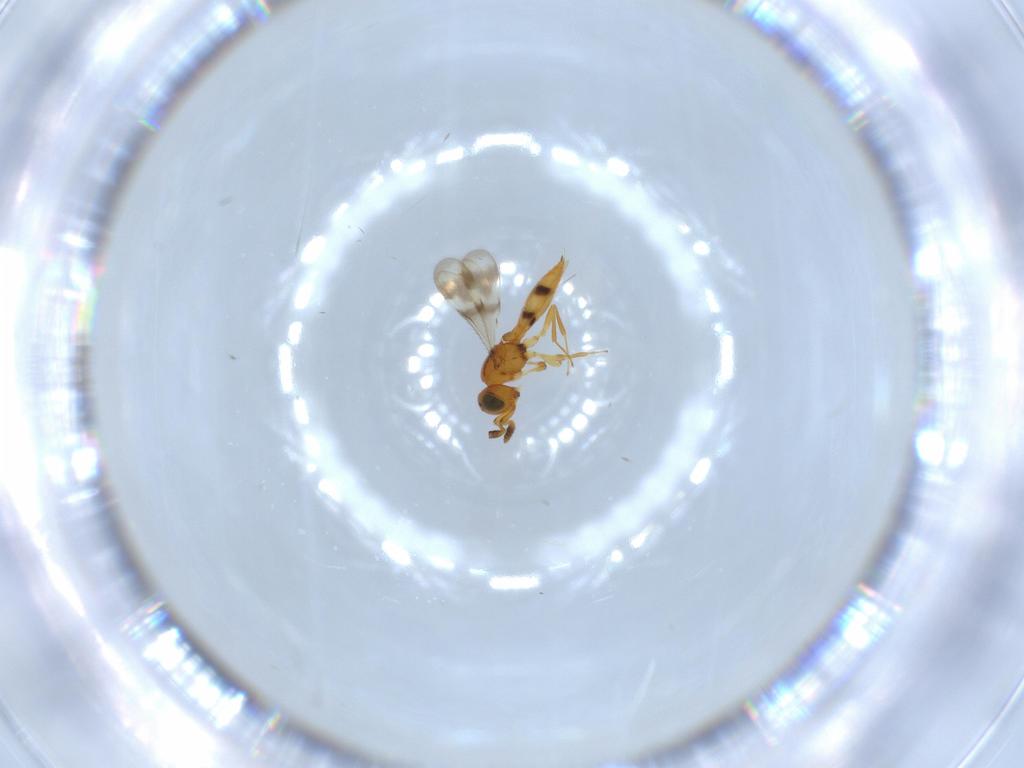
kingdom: Animalia
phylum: Arthropoda
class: Insecta
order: Hymenoptera
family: Scelionidae
